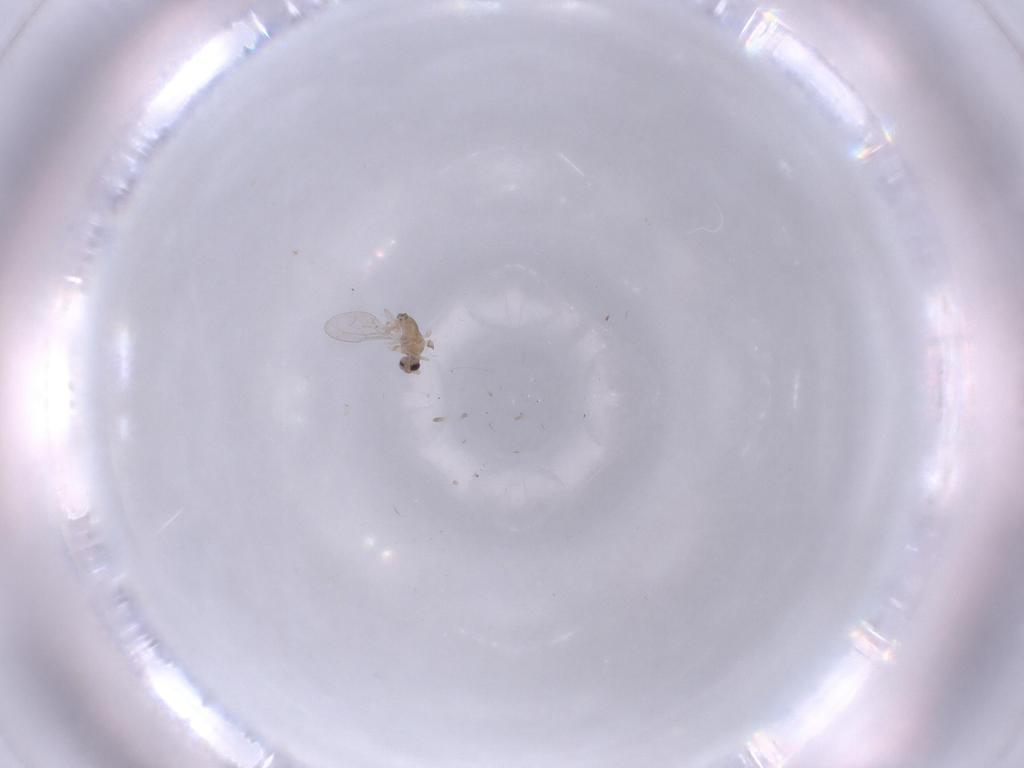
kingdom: Animalia
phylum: Arthropoda
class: Insecta
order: Diptera
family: Cecidomyiidae
